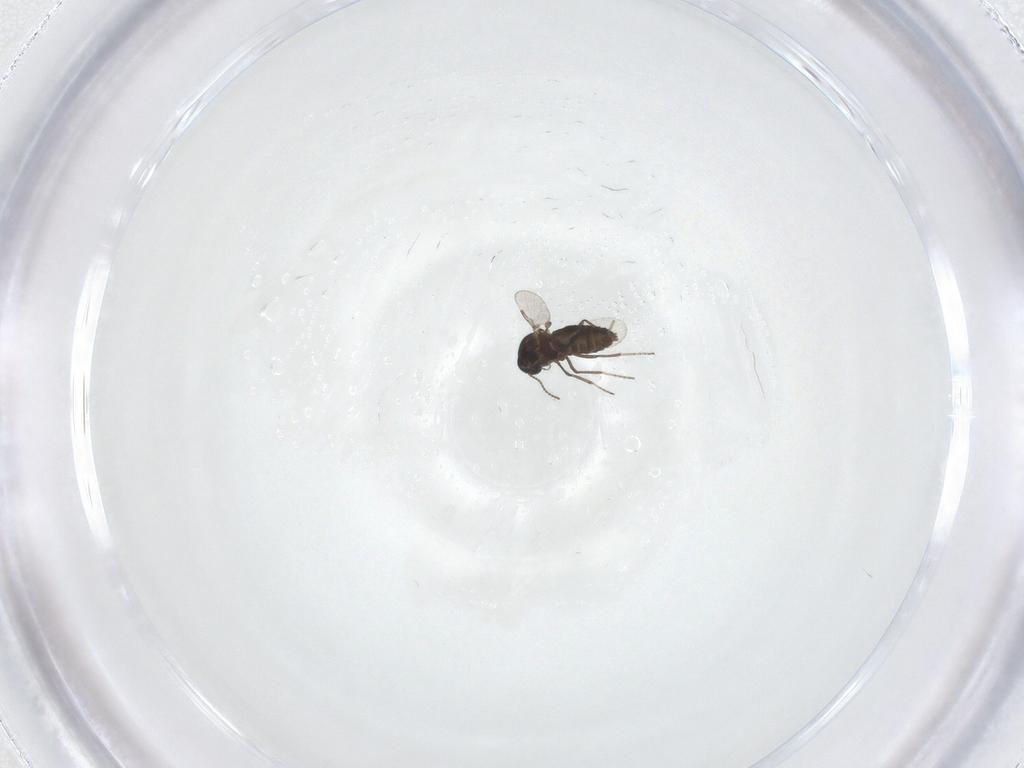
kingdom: Animalia
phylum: Arthropoda
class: Insecta
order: Diptera
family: Ceratopogonidae
